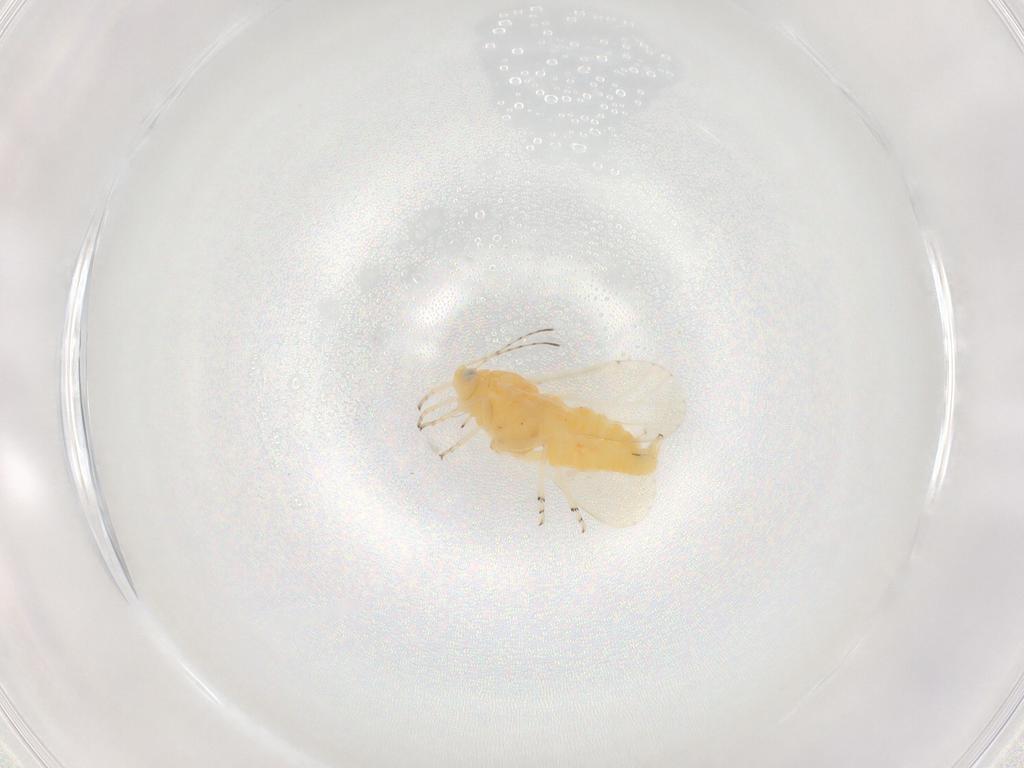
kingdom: Animalia
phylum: Arthropoda
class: Insecta
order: Hemiptera
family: Psyllidae
